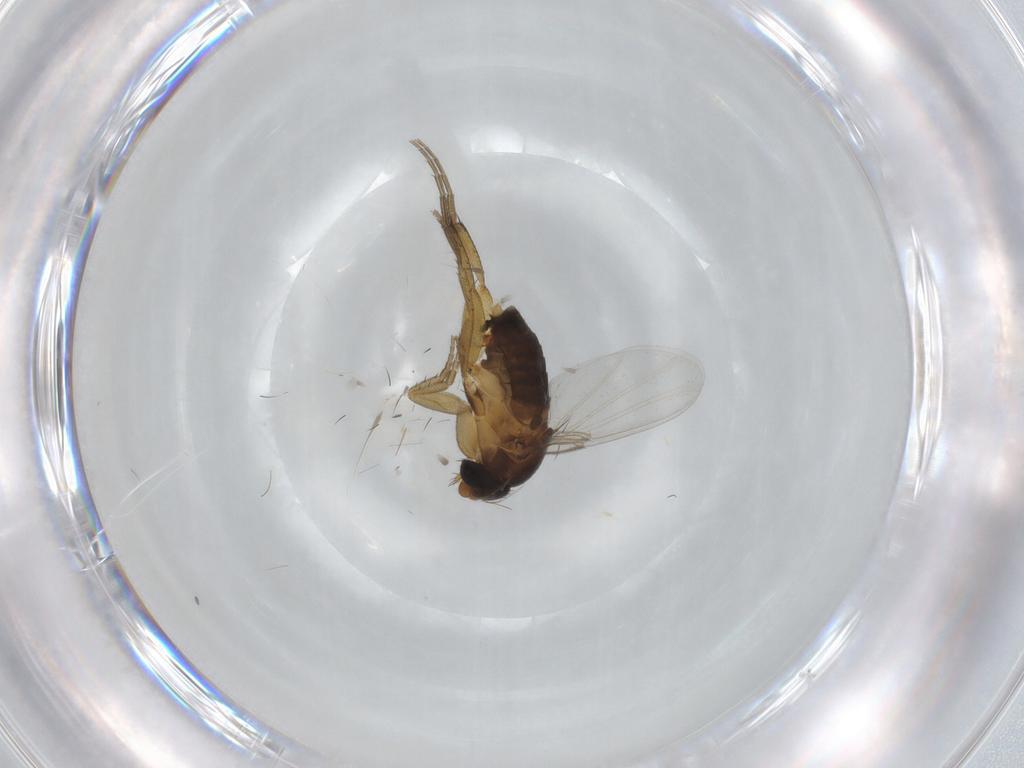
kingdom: Animalia
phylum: Arthropoda
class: Insecta
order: Diptera
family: Phoridae
